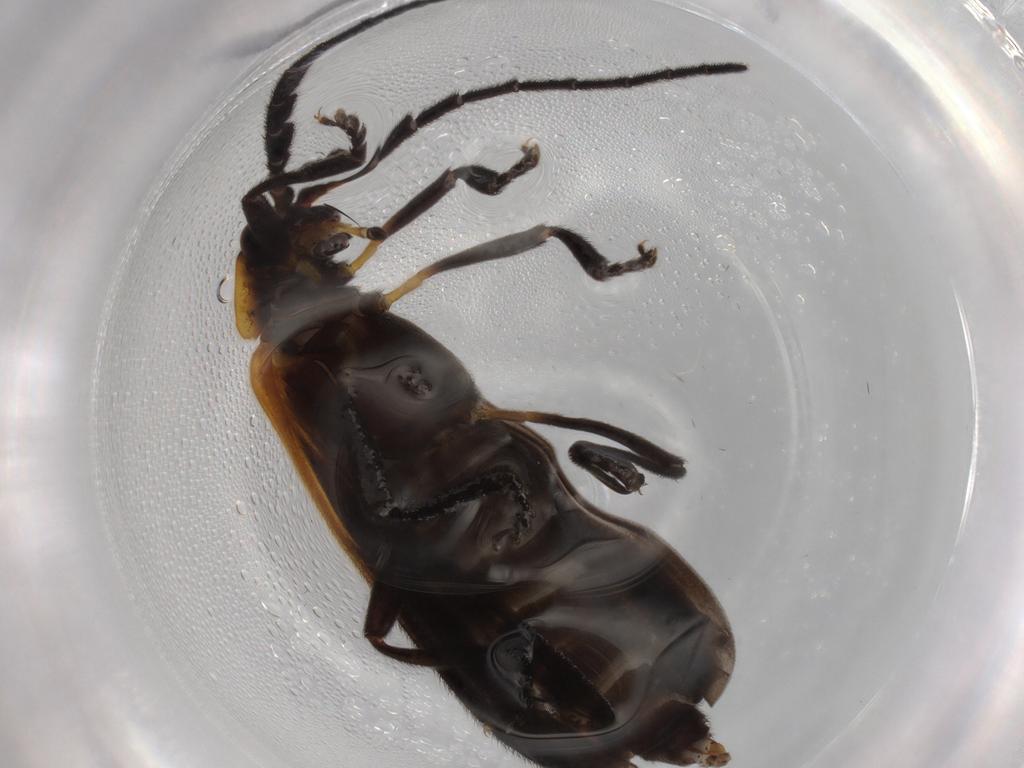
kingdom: Animalia
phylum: Arthropoda
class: Insecta
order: Coleoptera
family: Lycidae
